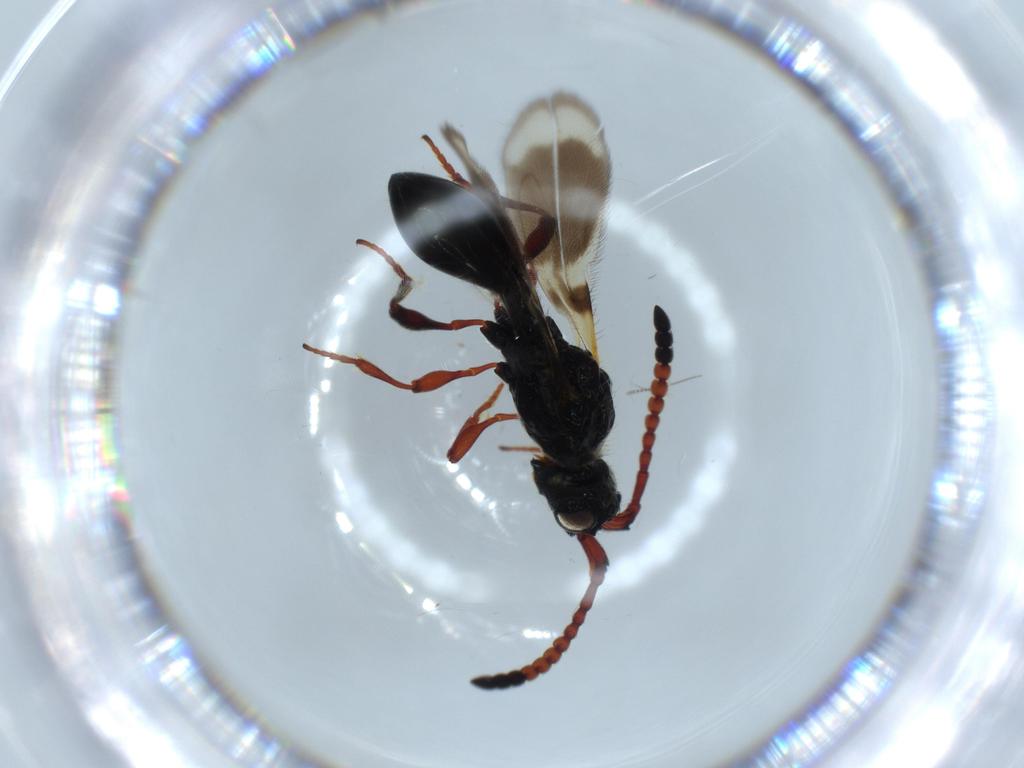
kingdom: Animalia
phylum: Arthropoda
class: Insecta
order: Hymenoptera
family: Diapriidae
